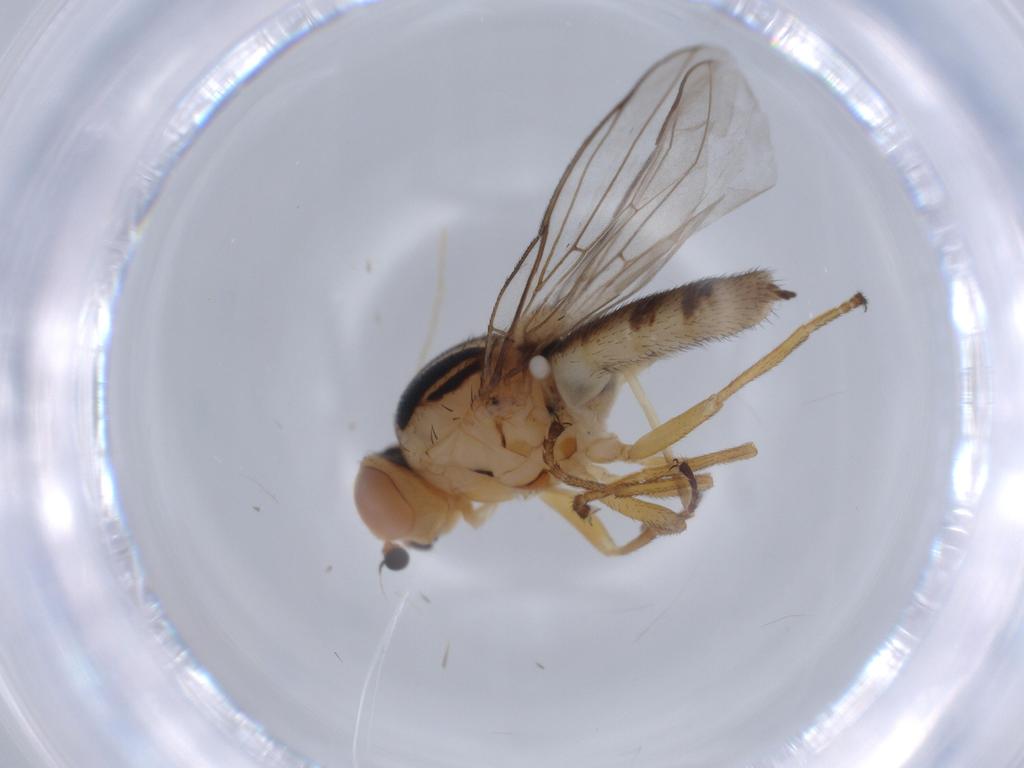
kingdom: Animalia
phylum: Arthropoda
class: Insecta
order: Diptera
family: Chloropidae
